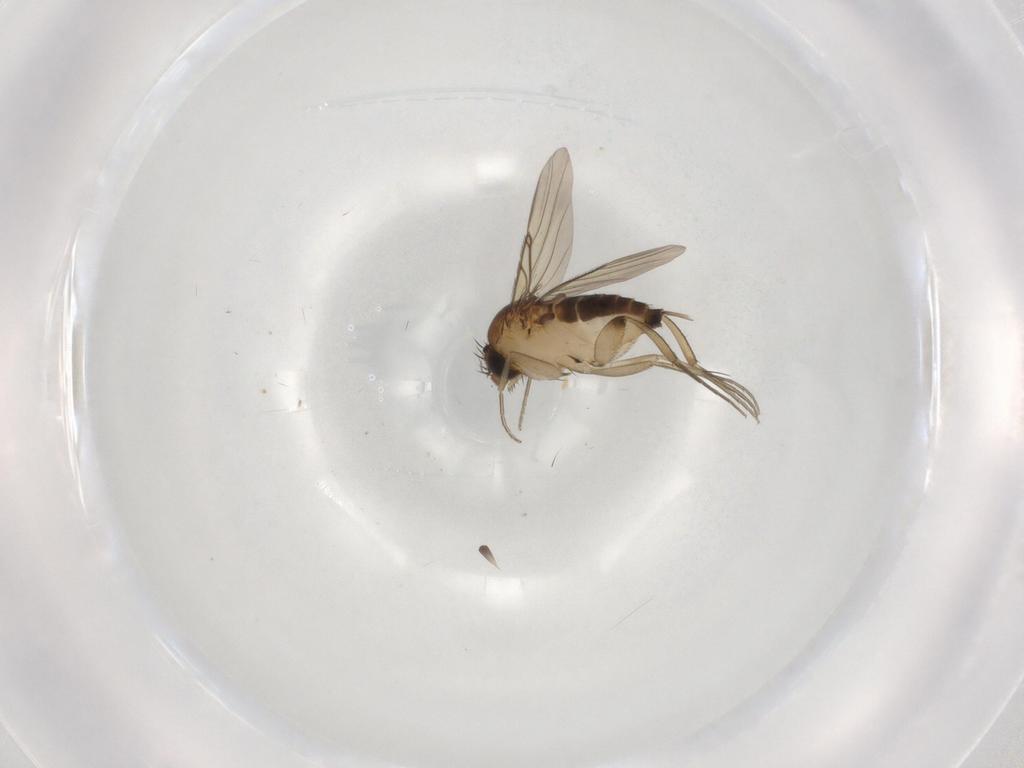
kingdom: Animalia
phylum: Arthropoda
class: Insecta
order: Diptera
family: Phoridae
